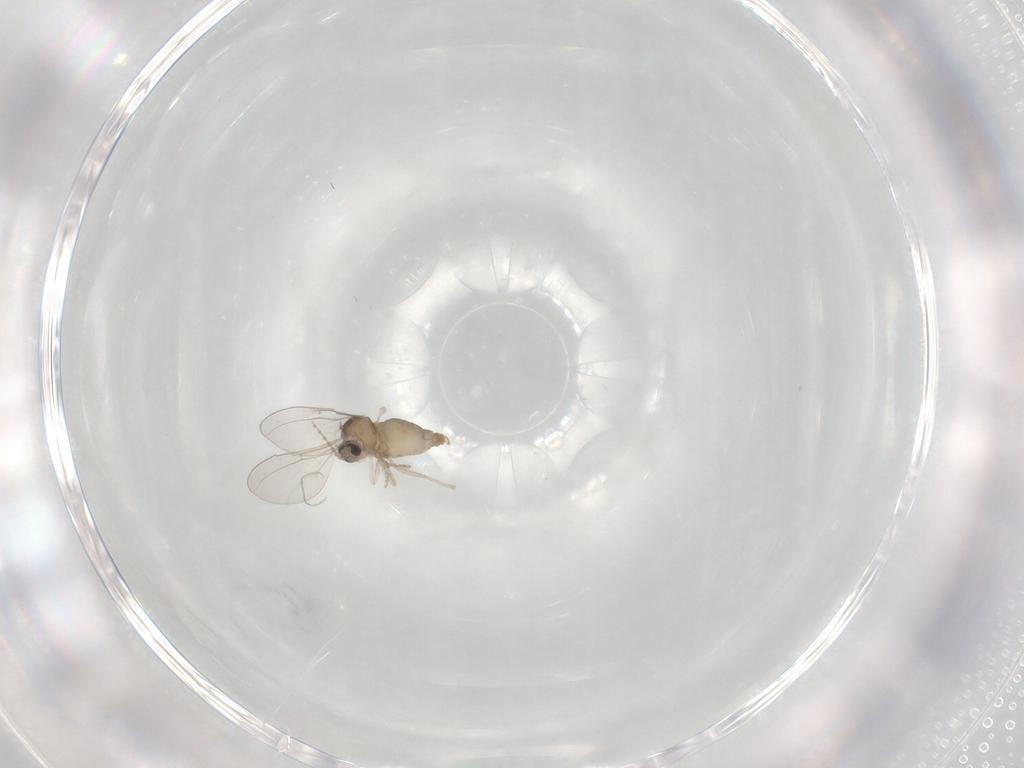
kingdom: Animalia
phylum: Arthropoda
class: Insecta
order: Diptera
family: Cecidomyiidae
